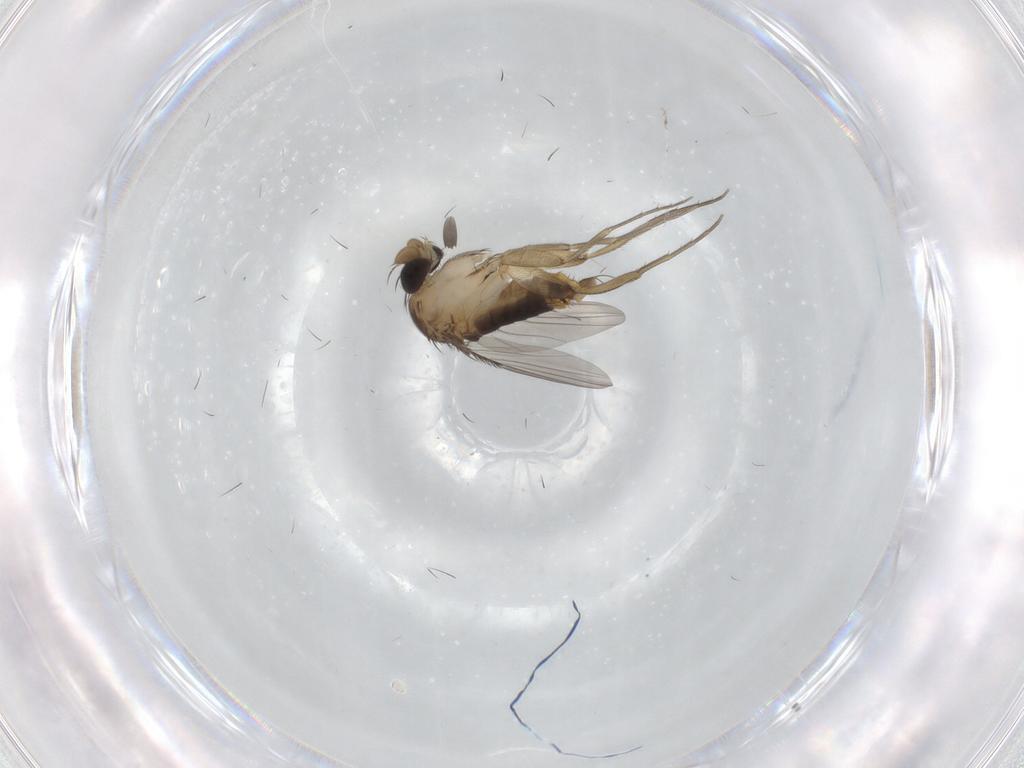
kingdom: Animalia
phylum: Arthropoda
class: Insecta
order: Diptera
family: Phoridae
